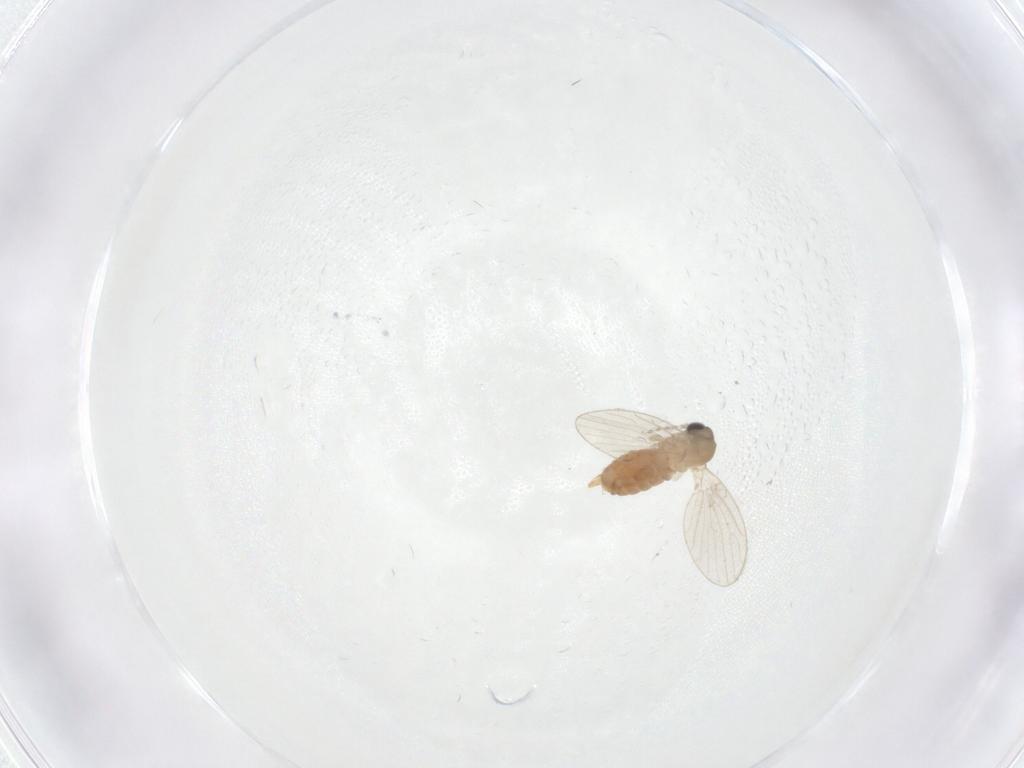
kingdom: Animalia
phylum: Arthropoda
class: Insecta
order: Diptera
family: Psychodidae
